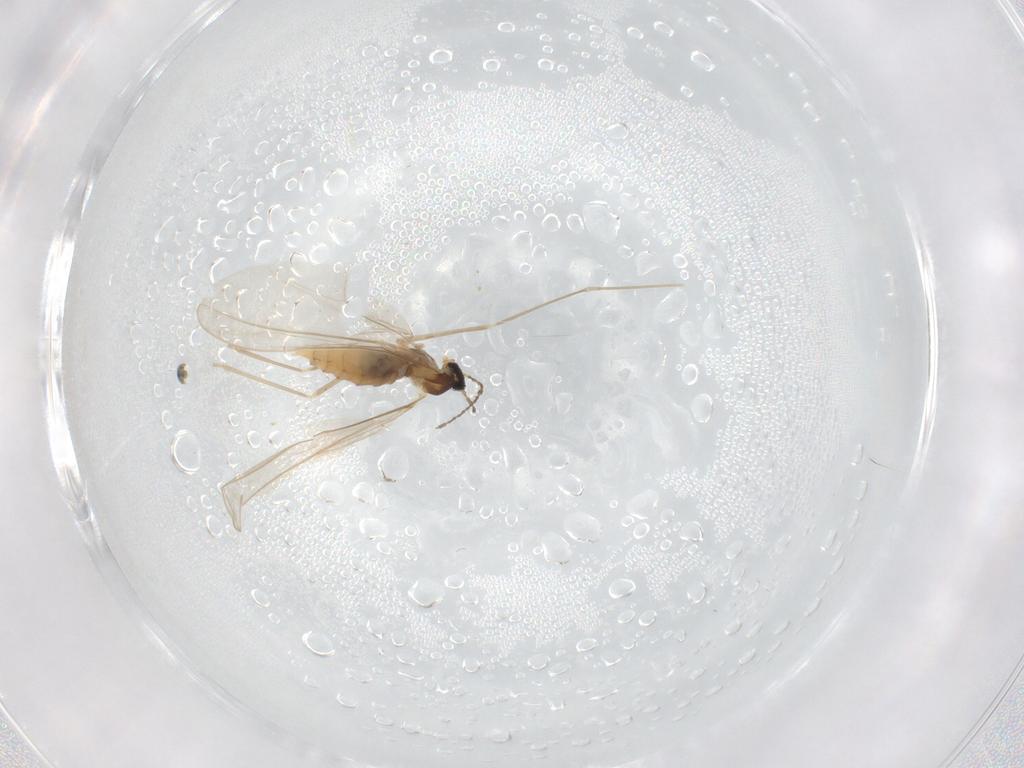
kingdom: Animalia
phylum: Arthropoda
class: Insecta
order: Diptera
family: Cecidomyiidae
